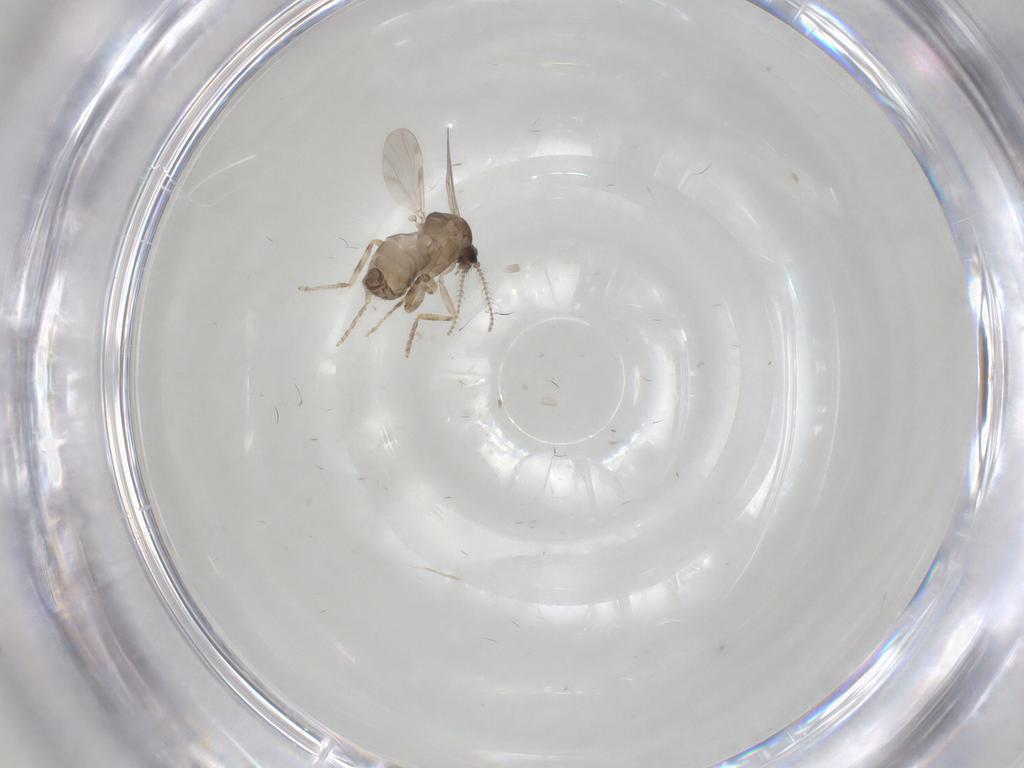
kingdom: Animalia
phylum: Arthropoda
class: Insecta
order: Diptera
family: Ceratopogonidae
